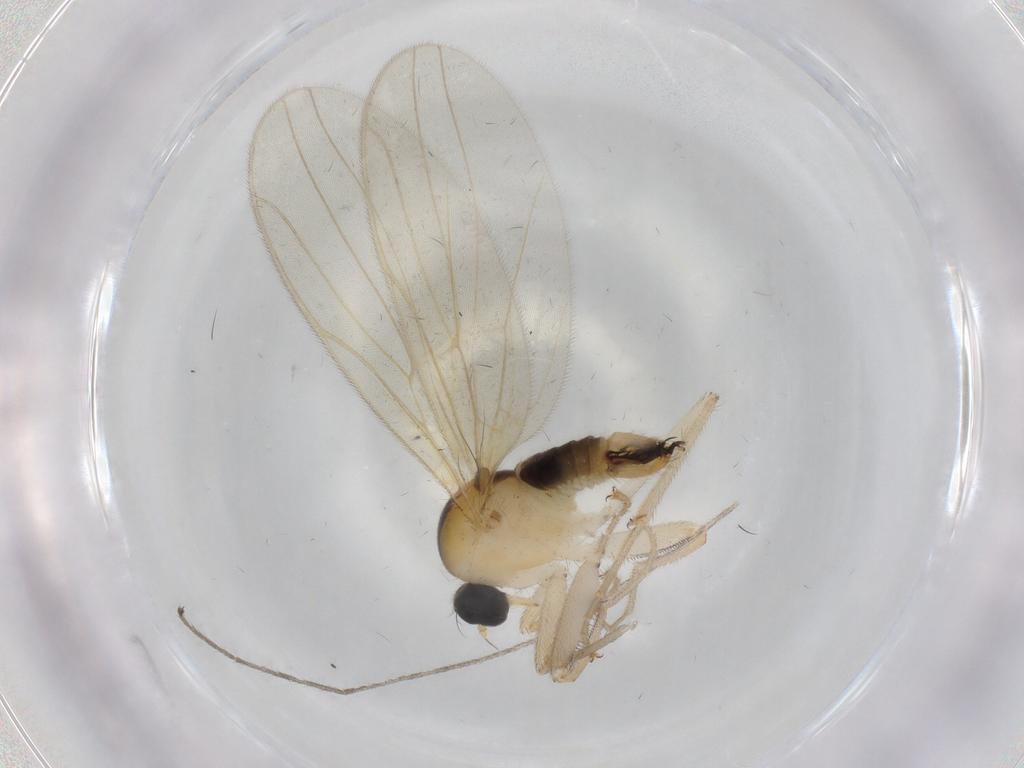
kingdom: Animalia
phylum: Arthropoda
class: Insecta
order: Diptera
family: Hybotidae
